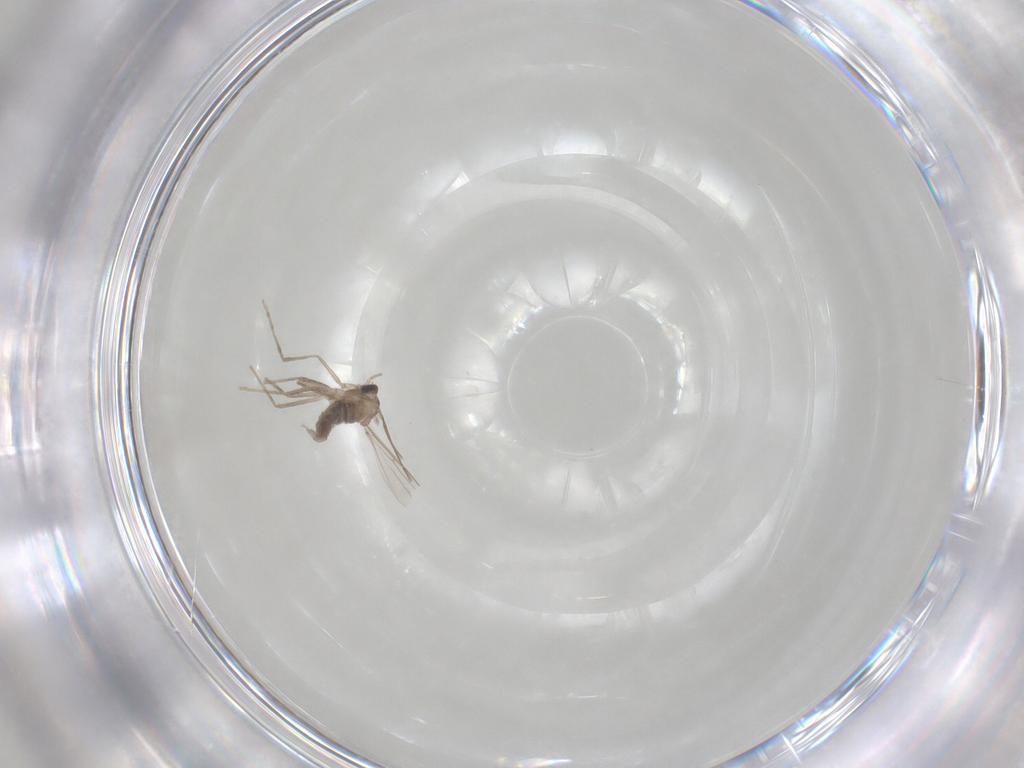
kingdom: Animalia
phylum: Arthropoda
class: Insecta
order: Diptera
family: Cecidomyiidae
